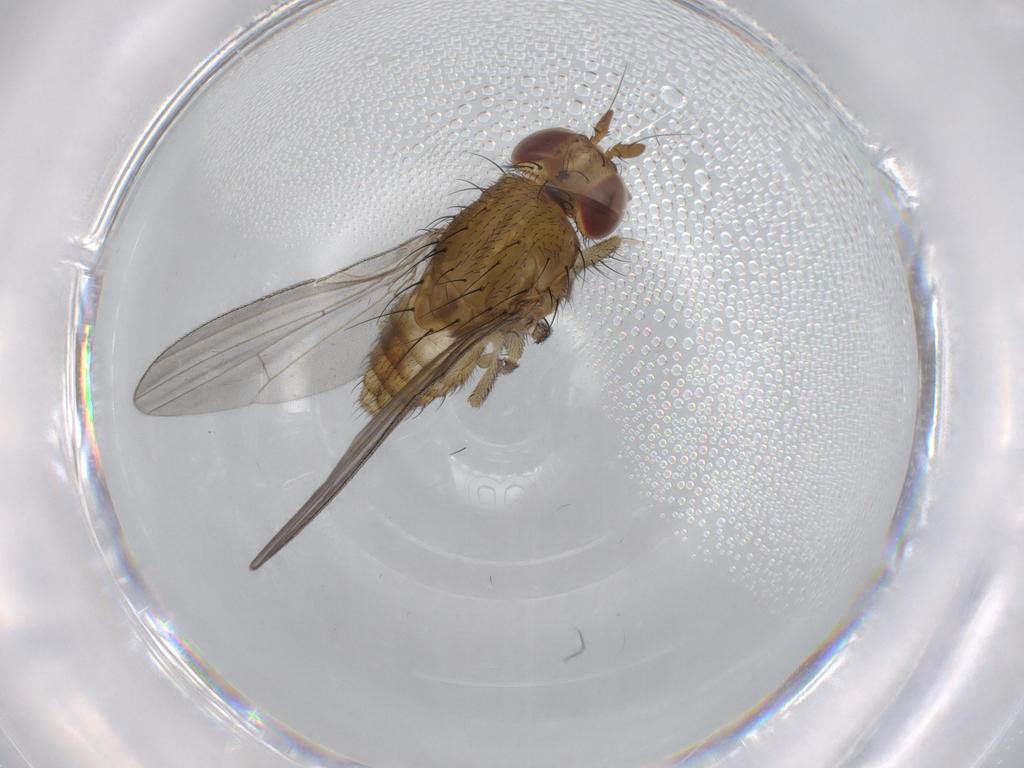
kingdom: Animalia
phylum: Arthropoda
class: Insecta
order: Diptera
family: Lauxaniidae
